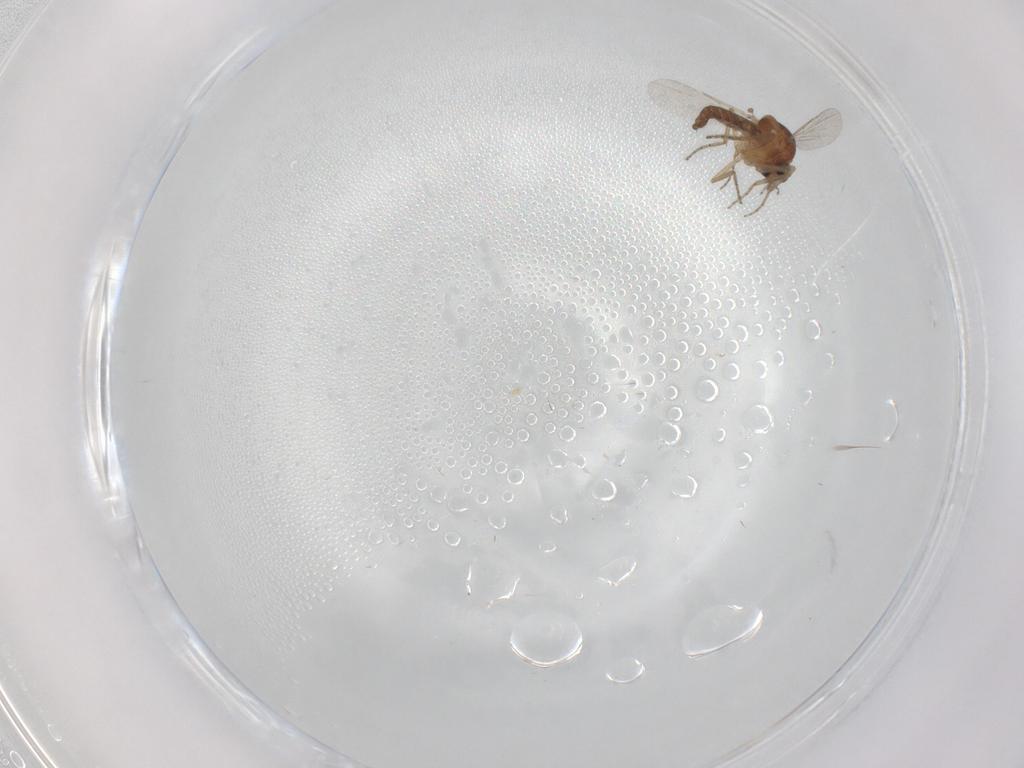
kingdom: Animalia
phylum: Arthropoda
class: Insecta
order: Diptera
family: Ceratopogonidae
